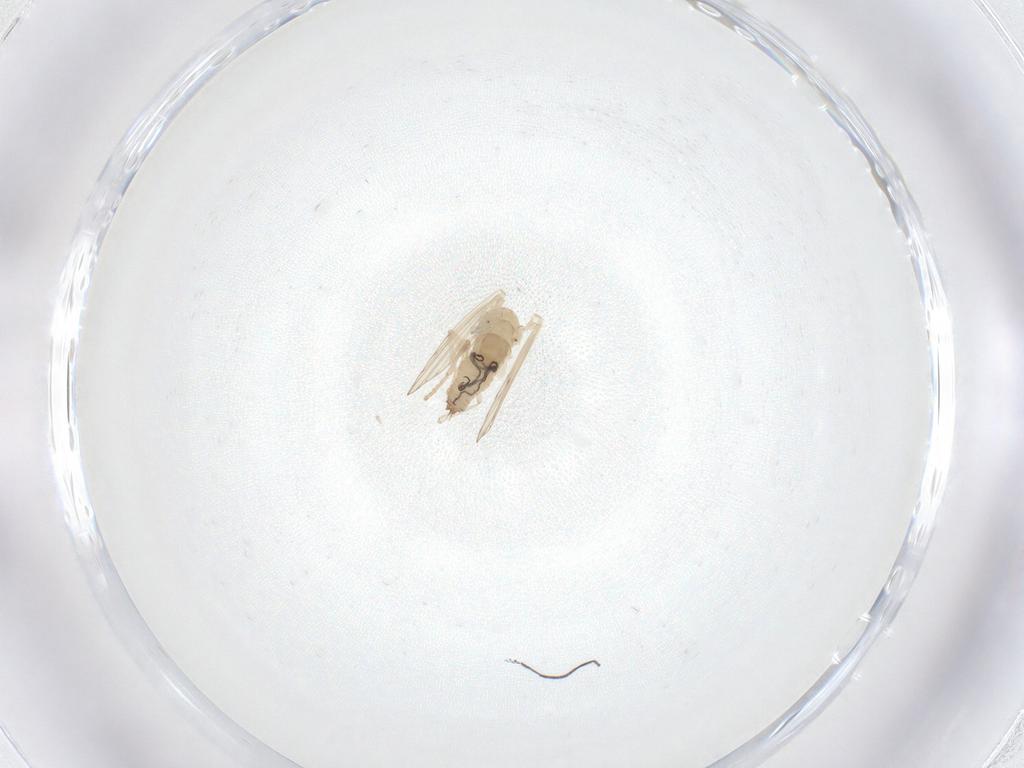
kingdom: Animalia
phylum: Arthropoda
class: Insecta
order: Diptera
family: Psychodidae
